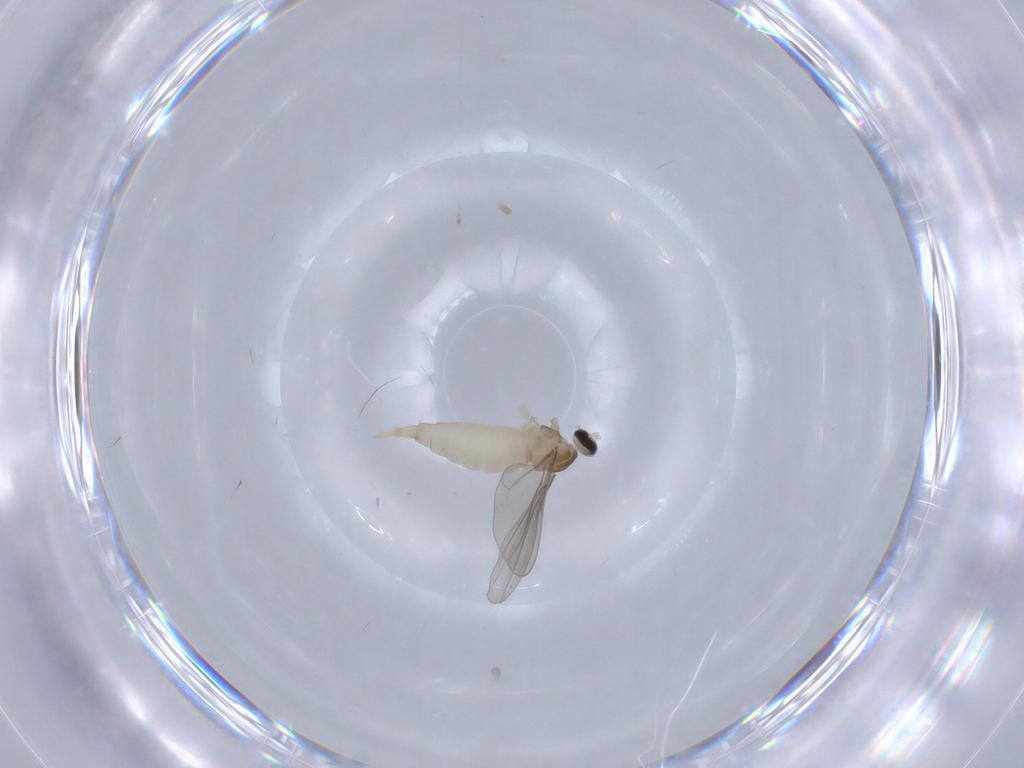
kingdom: Animalia
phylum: Arthropoda
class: Insecta
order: Diptera
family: Cecidomyiidae
